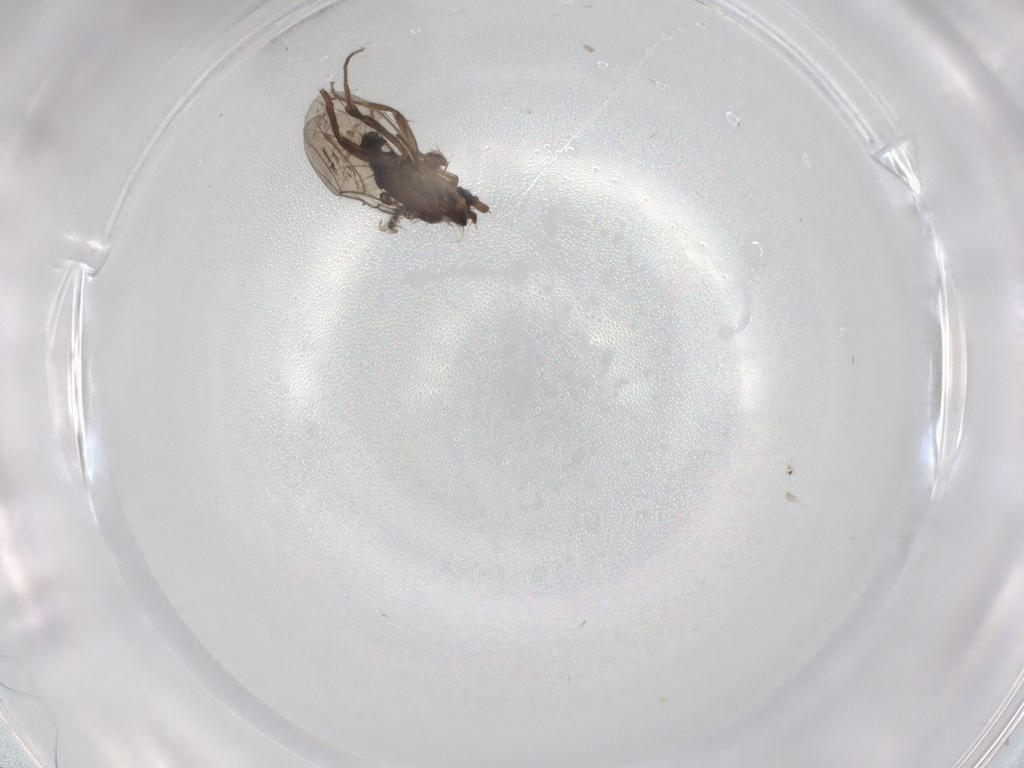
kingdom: Animalia
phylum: Arthropoda
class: Insecta
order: Diptera
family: Phoridae
